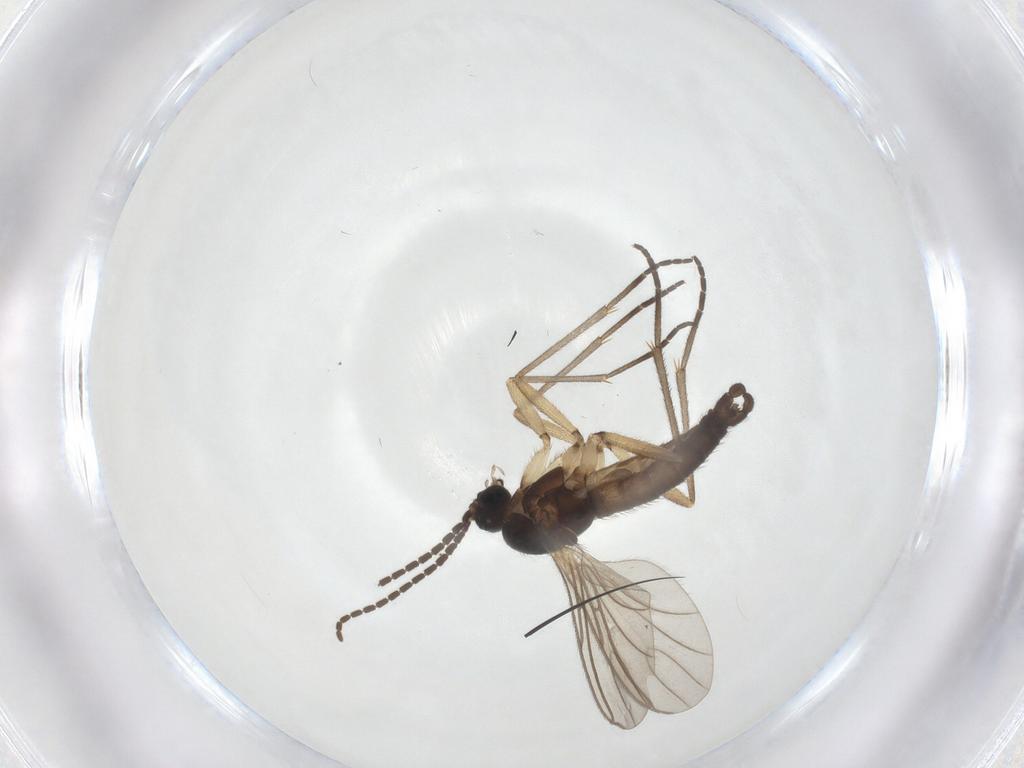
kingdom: Animalia
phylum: Arthropoda
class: Insecta
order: Diptera
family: Sciaridae
